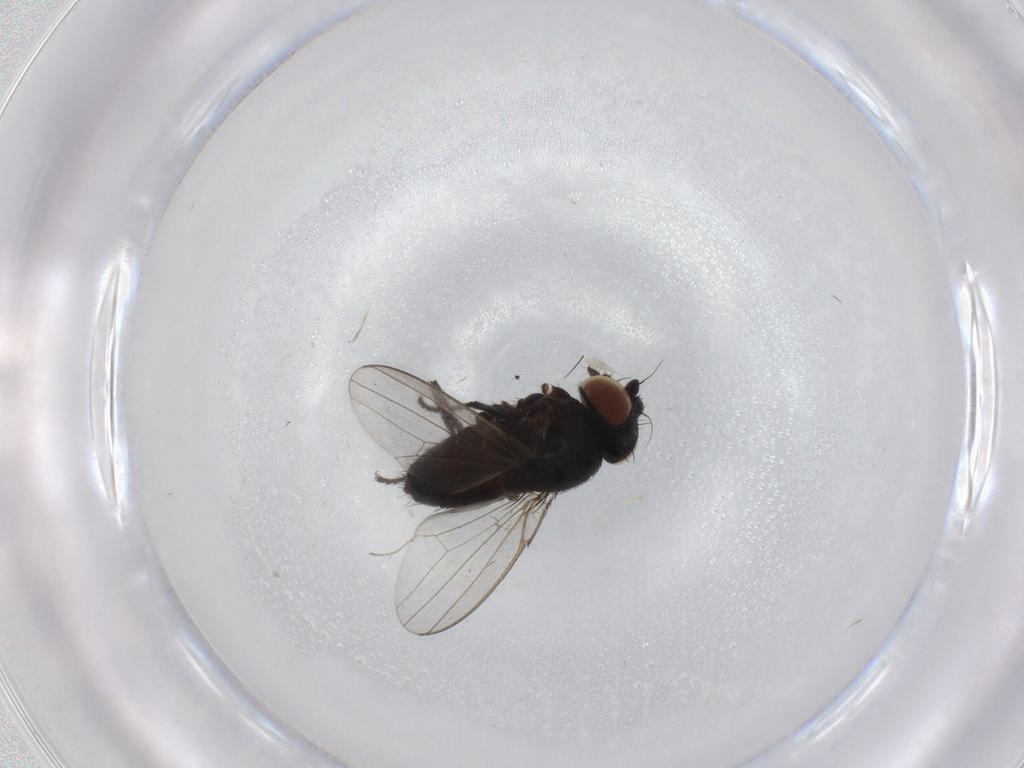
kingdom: Animalia
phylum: Arthropoda
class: Insecta
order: Diptera
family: Milichiidae
